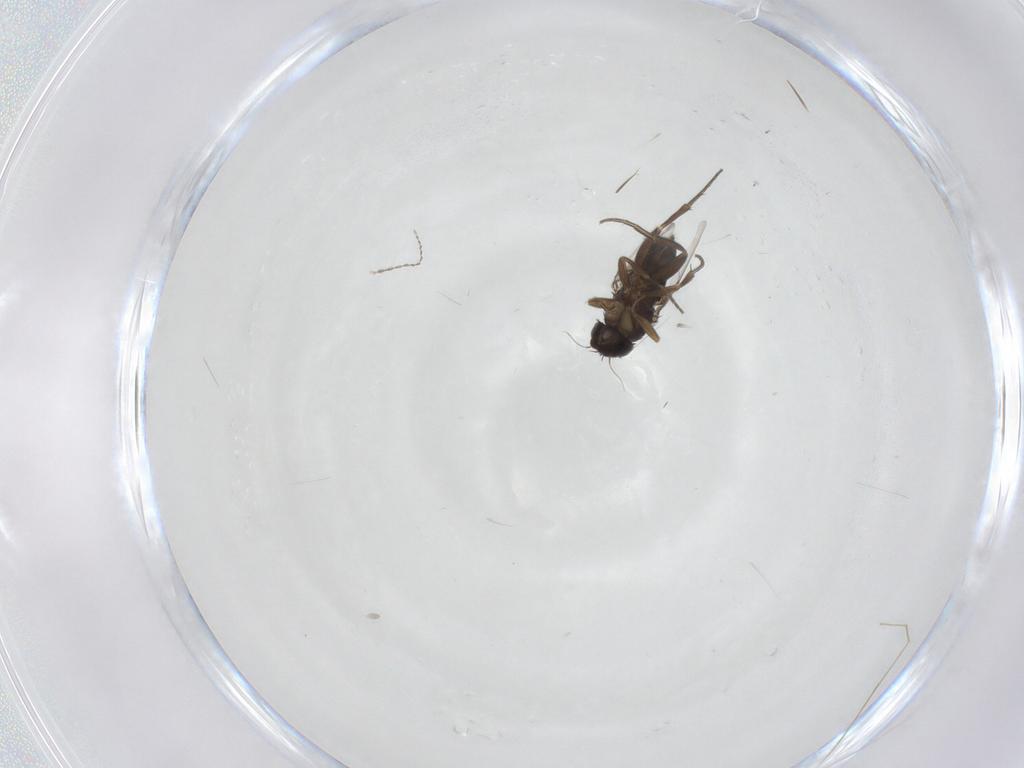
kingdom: Animalia
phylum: Arthropoda
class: Insecta
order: Diptera
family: Phoridae
